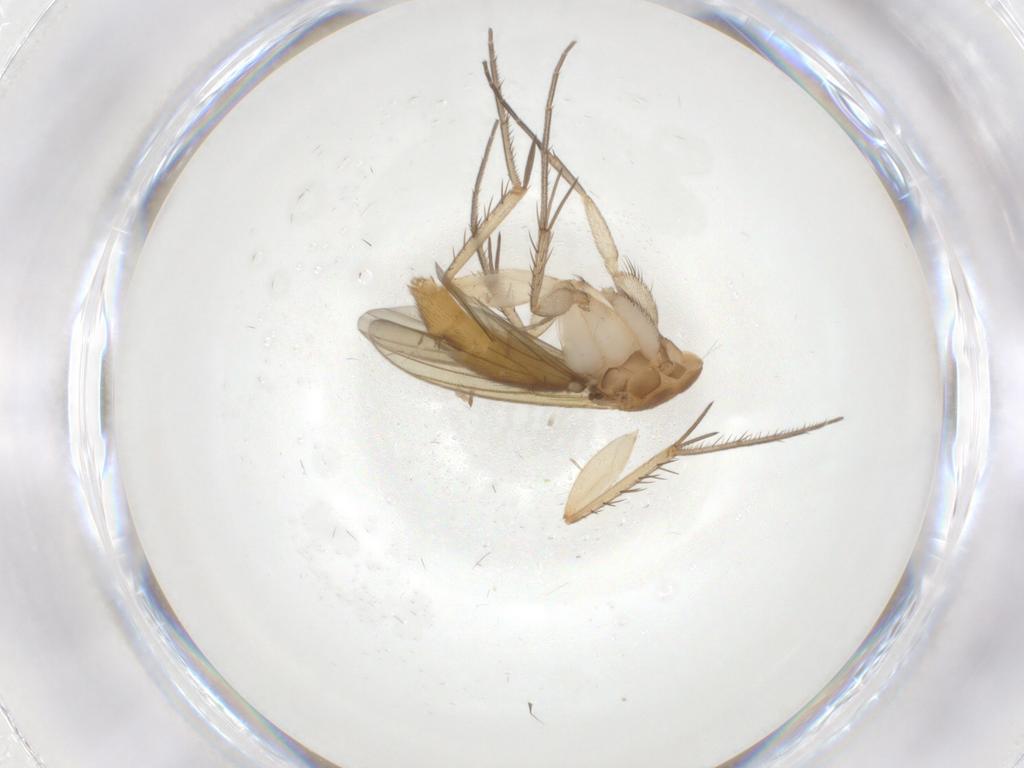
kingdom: Animalia
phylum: Arthropoda
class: Insecta
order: Diptera
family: Mycetophilidae
